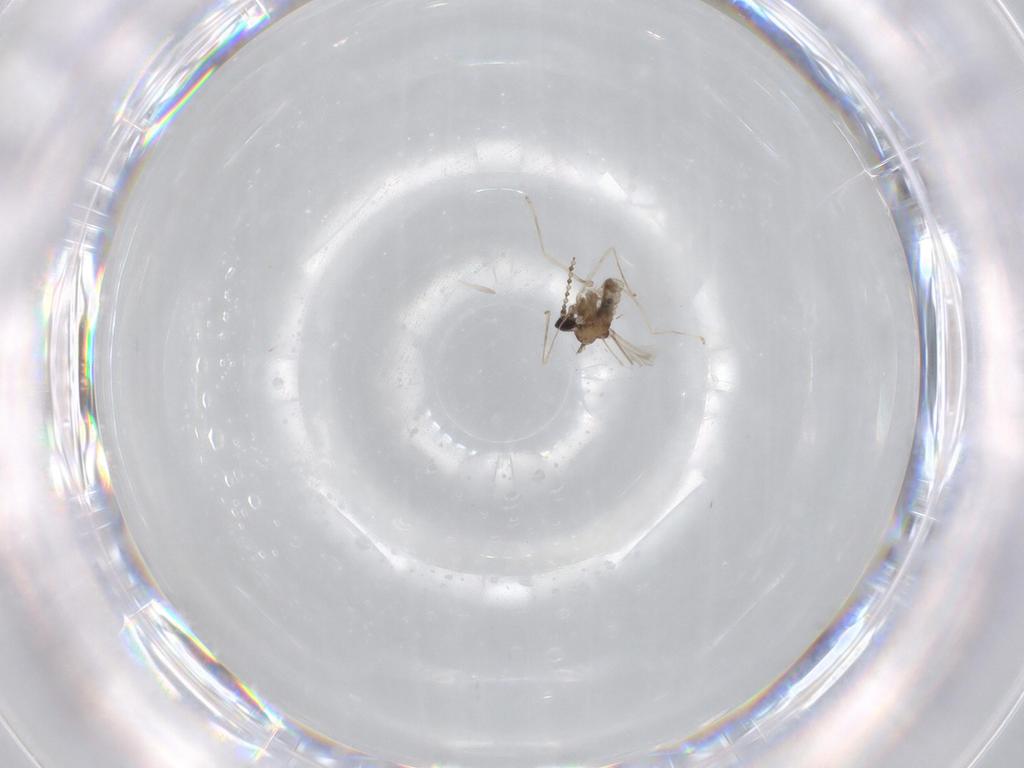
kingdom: Animalia
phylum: Arthropoda
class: Insecta
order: Diptera
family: Cecidomyiidae
